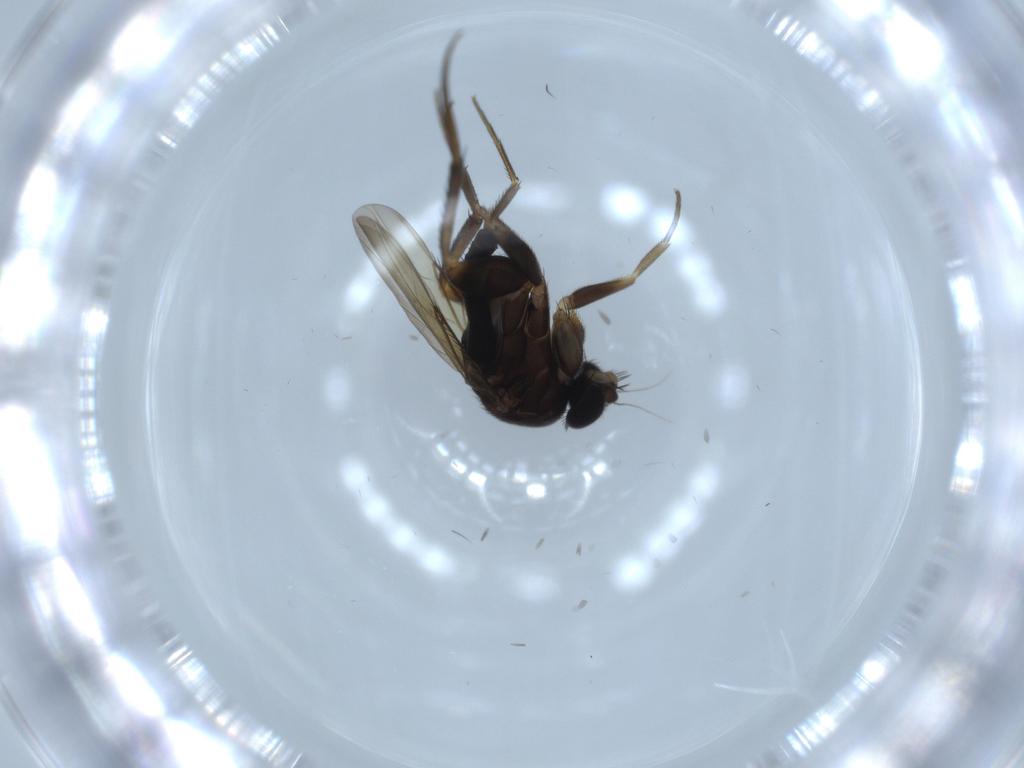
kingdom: Animalia
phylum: Arthropoda
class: Insecta
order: Diptera
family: Phoridae
